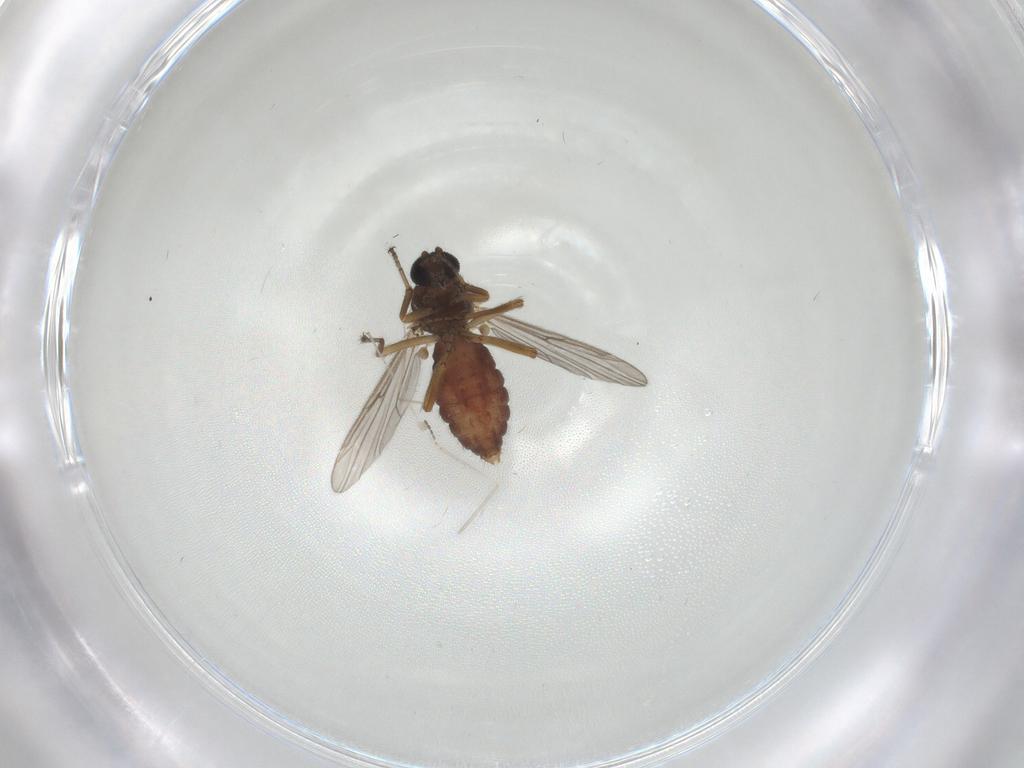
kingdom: Animalia
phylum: Arthropoda
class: Insecta
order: Diptera
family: Ceratopogonidae
